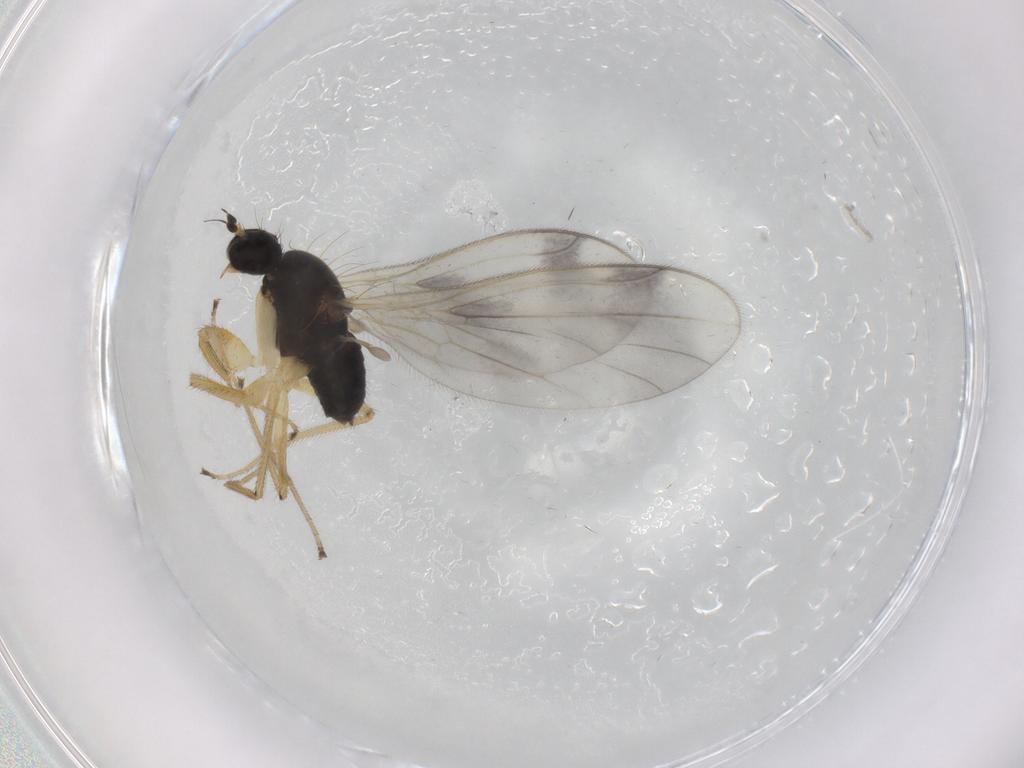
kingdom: Animalia
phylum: Arthropoda
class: Insecta
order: Diptera
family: Empididae
